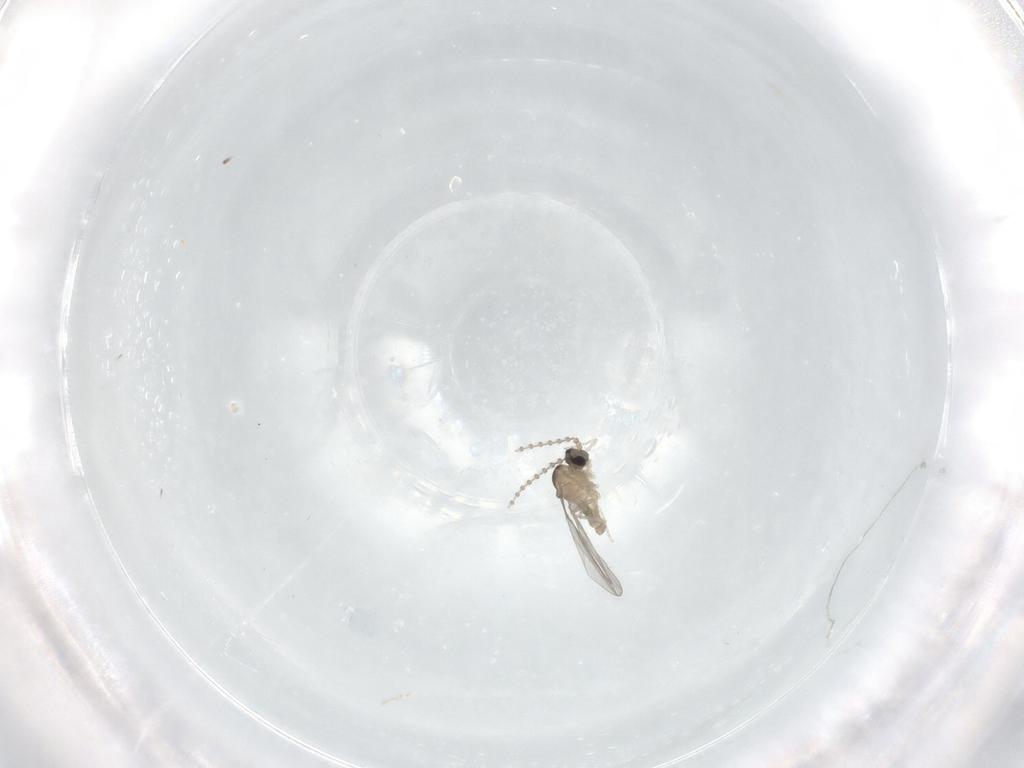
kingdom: Animalia
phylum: Arthropoda
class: Insecta
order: Diptera
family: Cecidomyiidae
